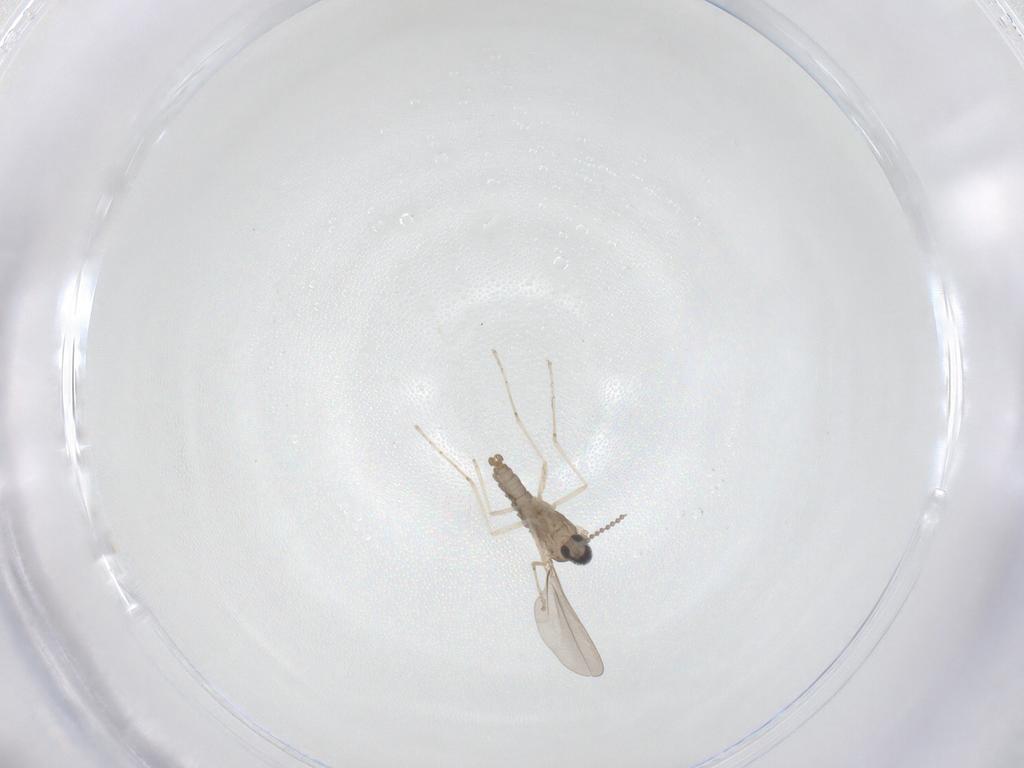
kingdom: Animalia
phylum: Arthropoda
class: Insecta
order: Diptera
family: Cecidomyiidae
